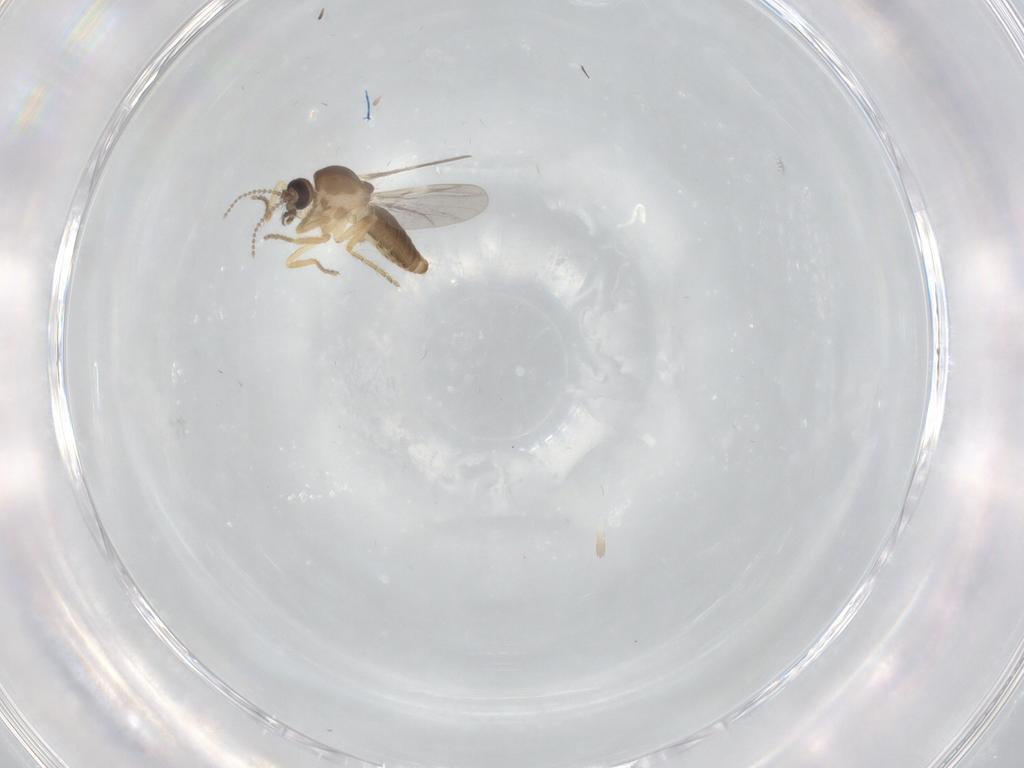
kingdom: Animalia
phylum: Arthropoda
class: Insecta
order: Diptera
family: Ceratopogonidae
